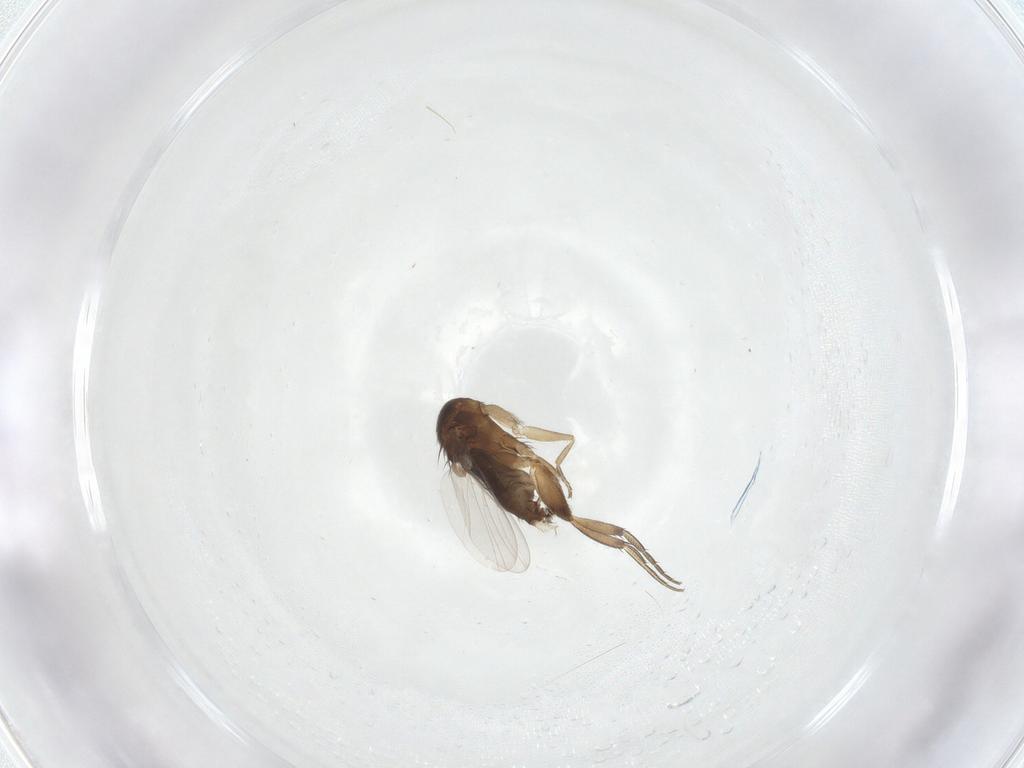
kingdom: Animalia
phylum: Arthropoda
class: Insecta
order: Diptera
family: Phoridae
